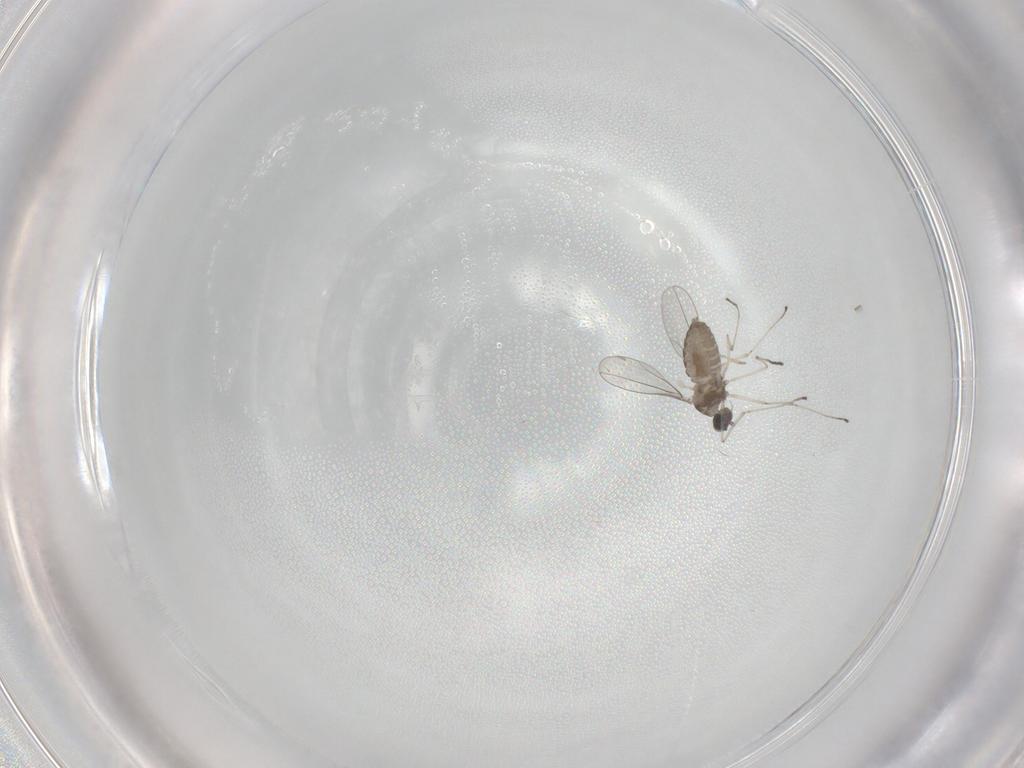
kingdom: Animalia
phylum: Arthropoda
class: Insecta
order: Diptera
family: Cecidomyiidae
